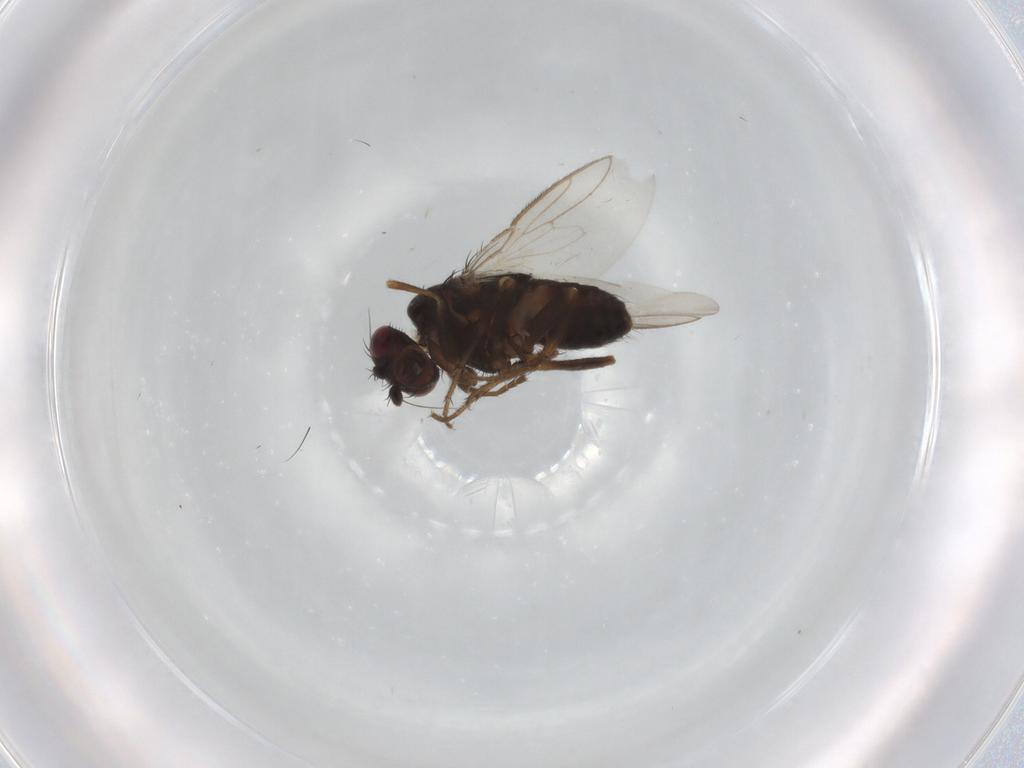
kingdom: Animalia
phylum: Arthropoda
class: Insecta
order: Diptera
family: Sphaeroceridae
